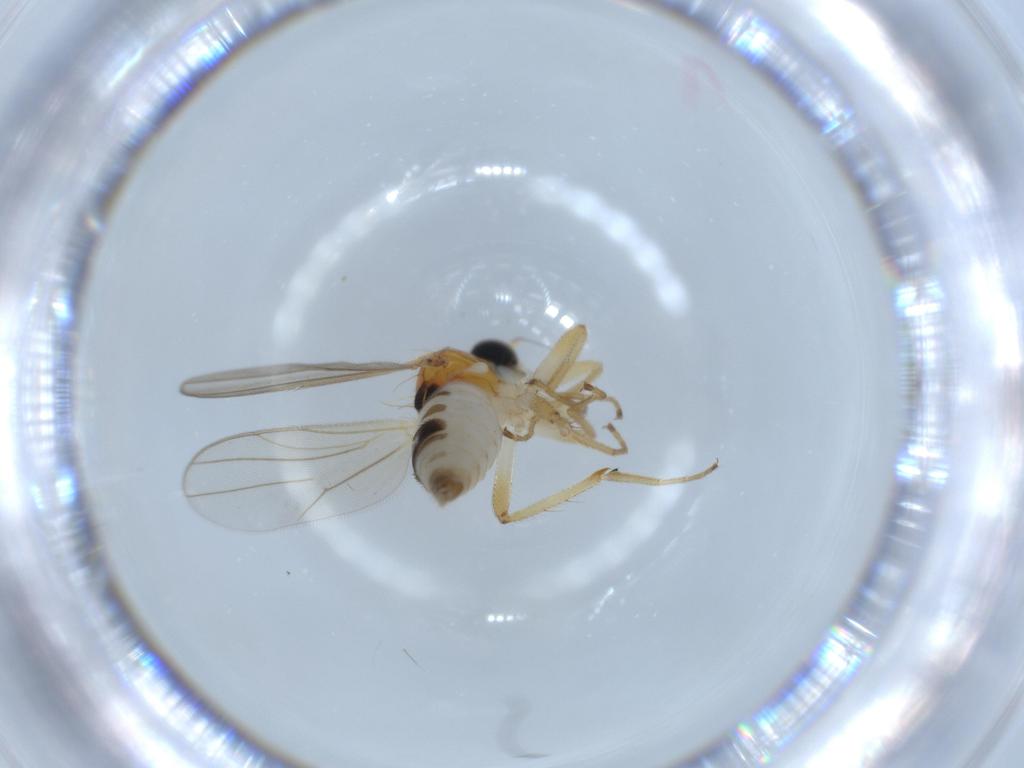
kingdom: Animalia
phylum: Arthropoda
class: Insecta
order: Diptera
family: Hybotidae
